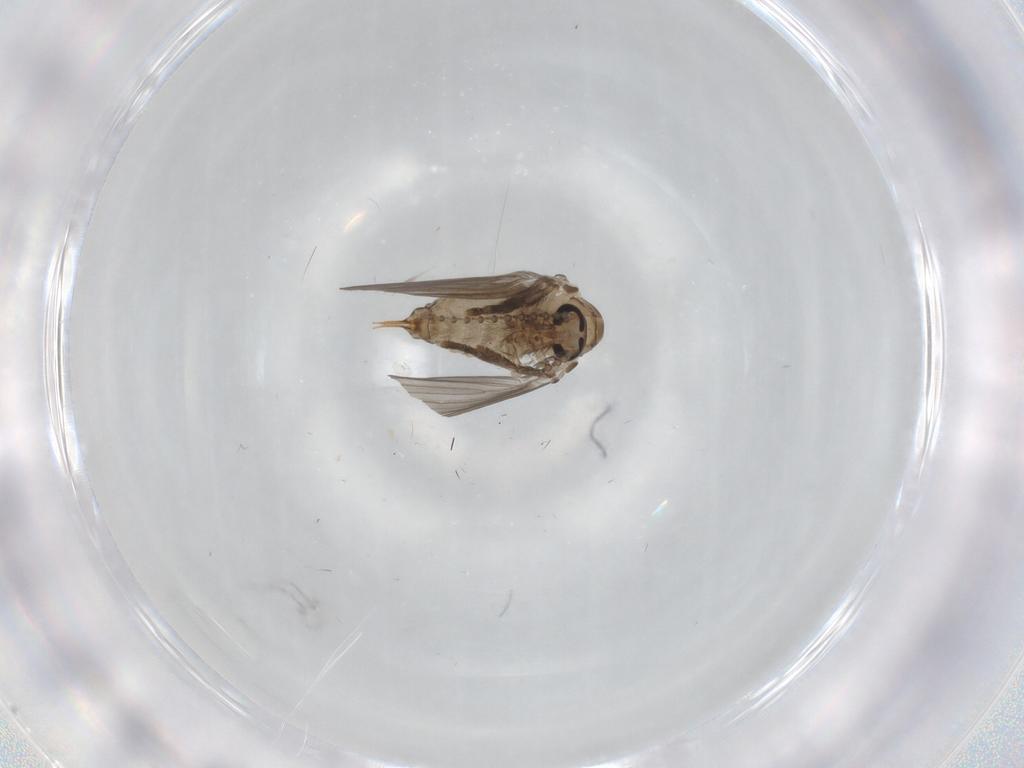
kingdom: Animalia
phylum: Arthropoda
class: Insecta
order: Diptera
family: Psychodidae
